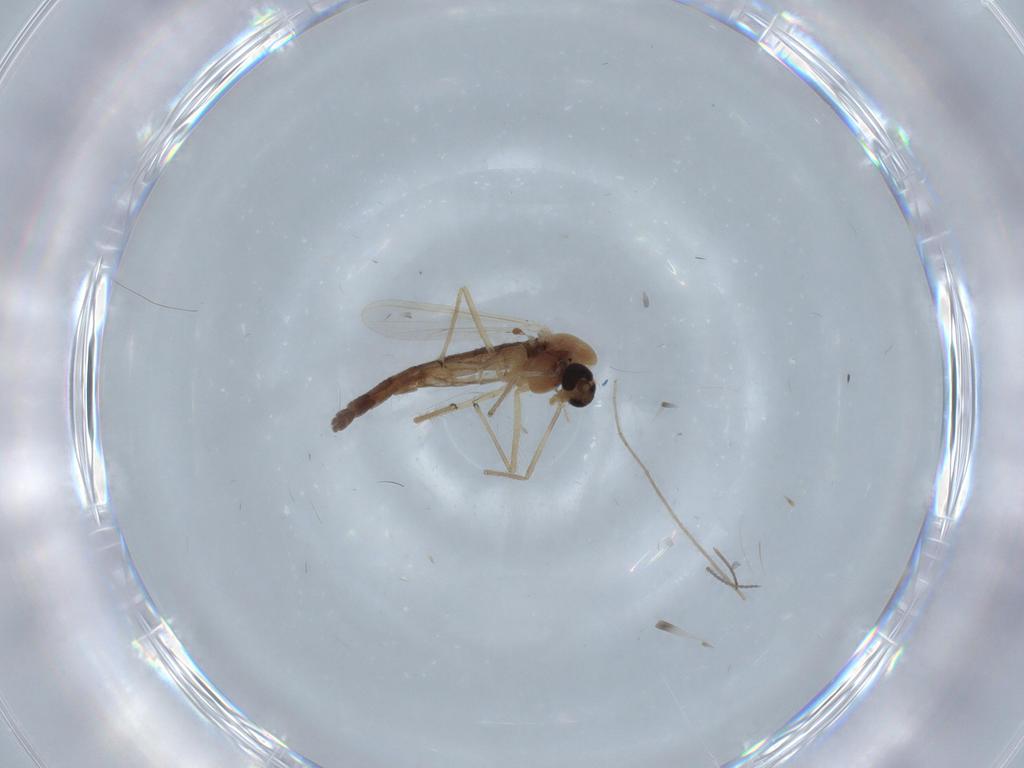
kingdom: Animalia
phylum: Arthropoda
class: Insecta
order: Diptera
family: Chironomidae
